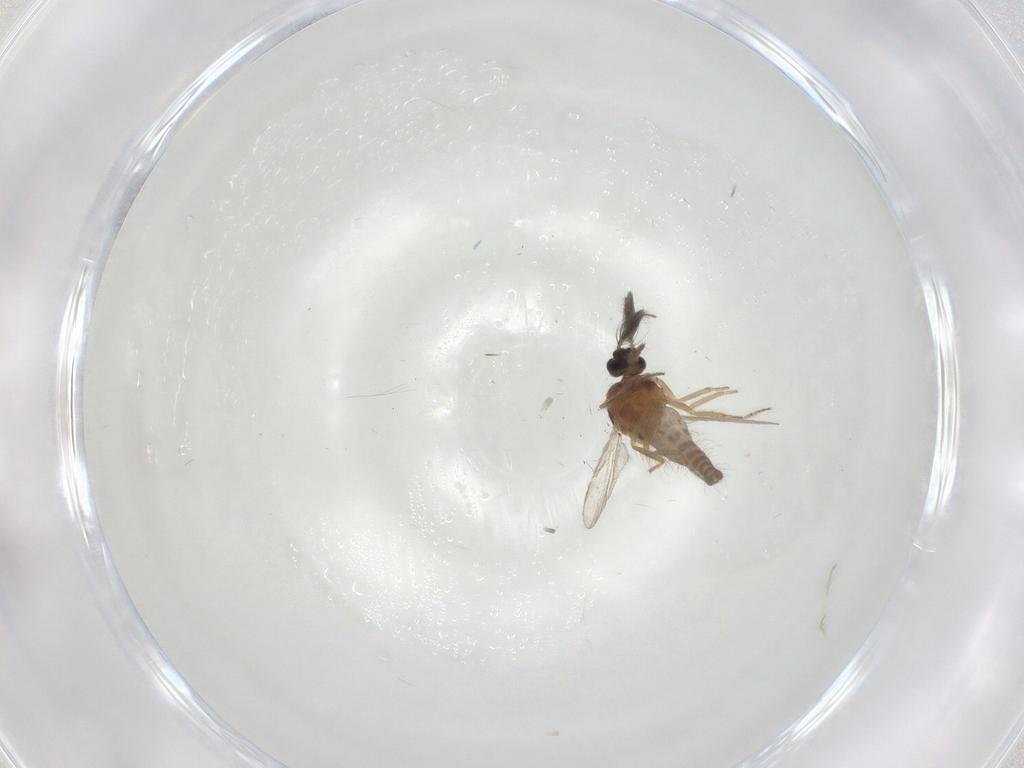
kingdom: Animalia
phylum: Arthropoda
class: Insecta
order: Diptera
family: Ceratopogonidae
